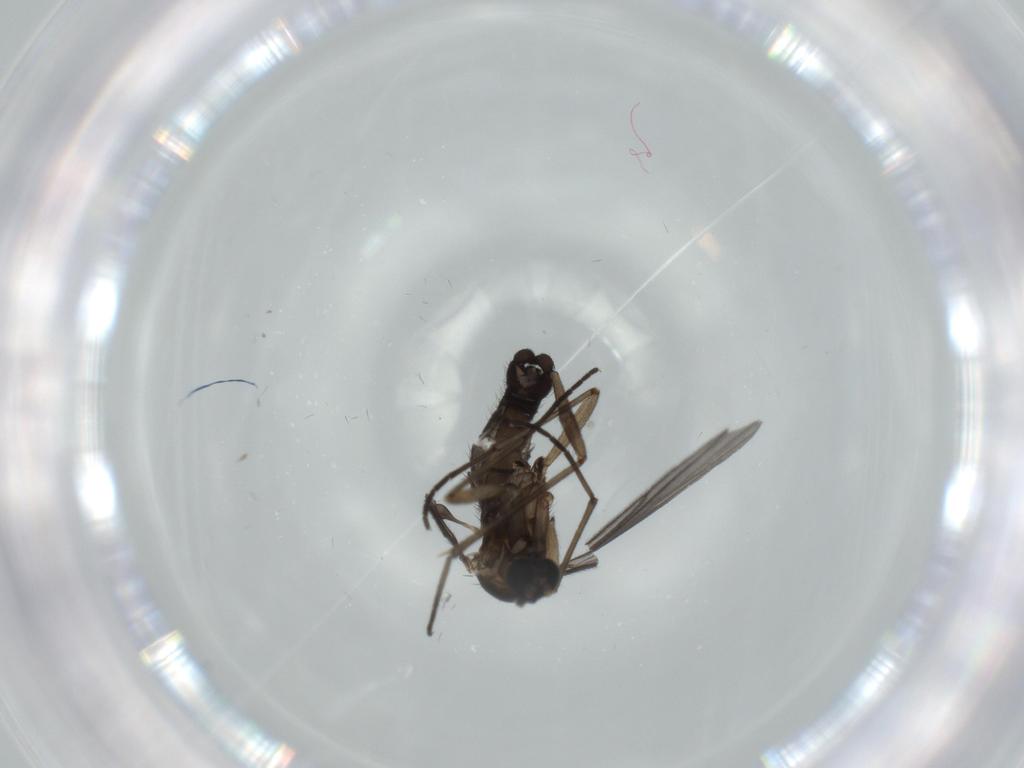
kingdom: Animalia
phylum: Arthropoda
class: Insecta
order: Diptera
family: Sciaridae
